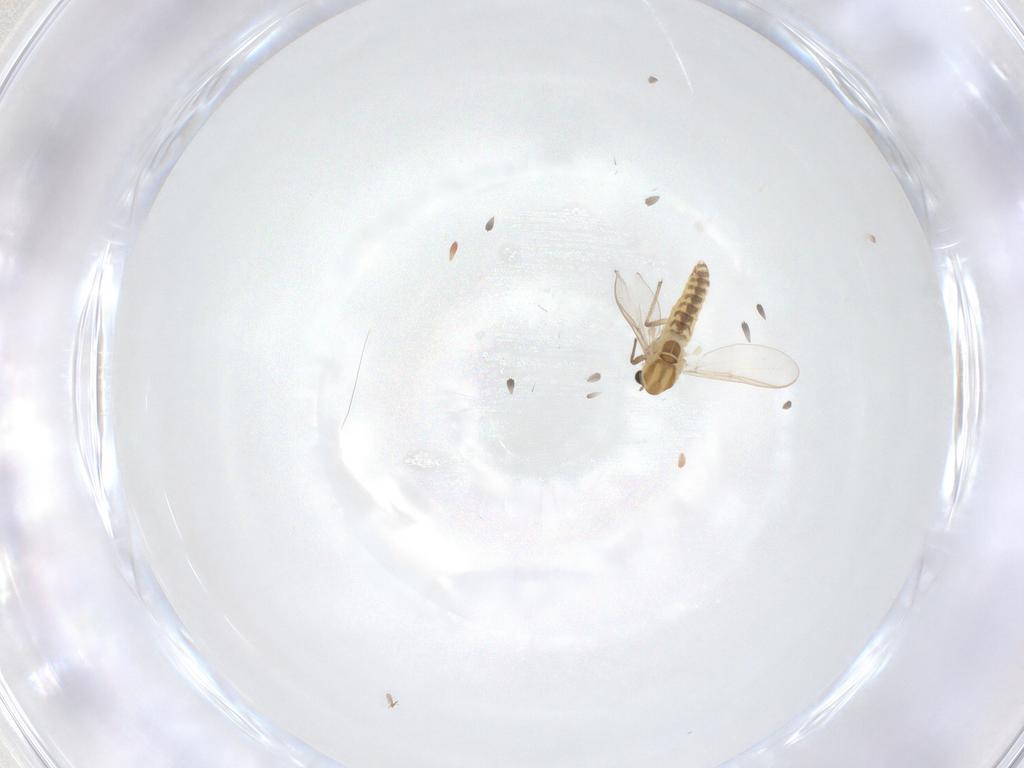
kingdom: Animalia
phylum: Arthropoda
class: Insecta
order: Diptera
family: Chironomidae
